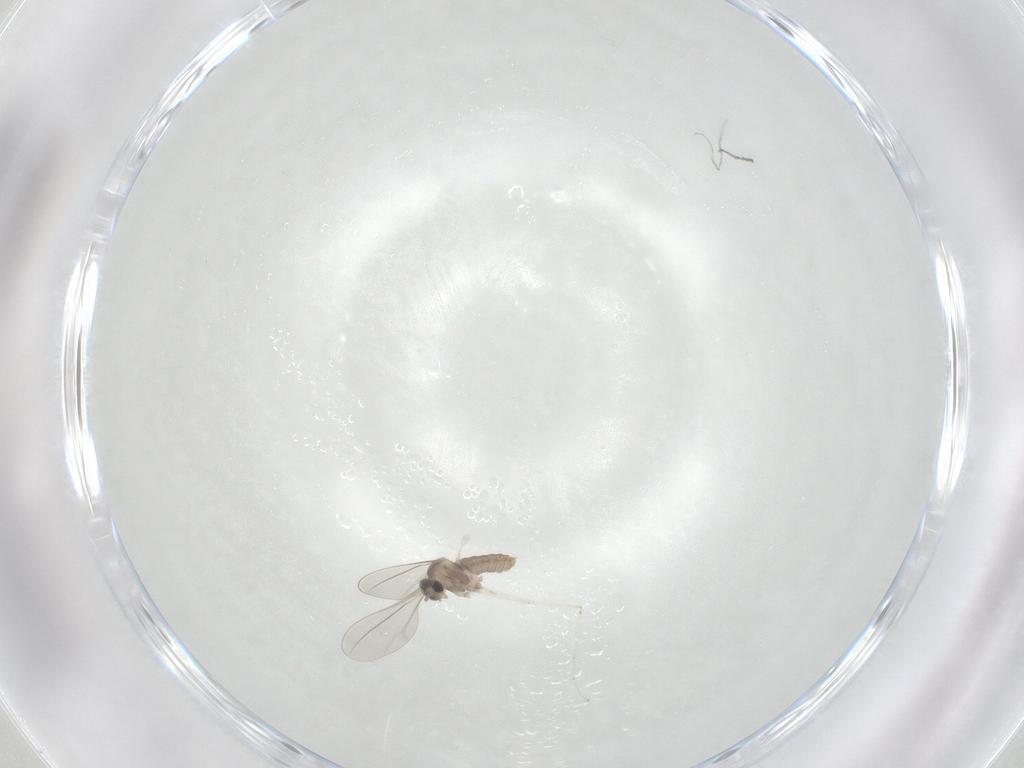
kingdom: Animalia
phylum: Arthropoda
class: Insecta
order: Diptera
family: Cecidomyiidae
